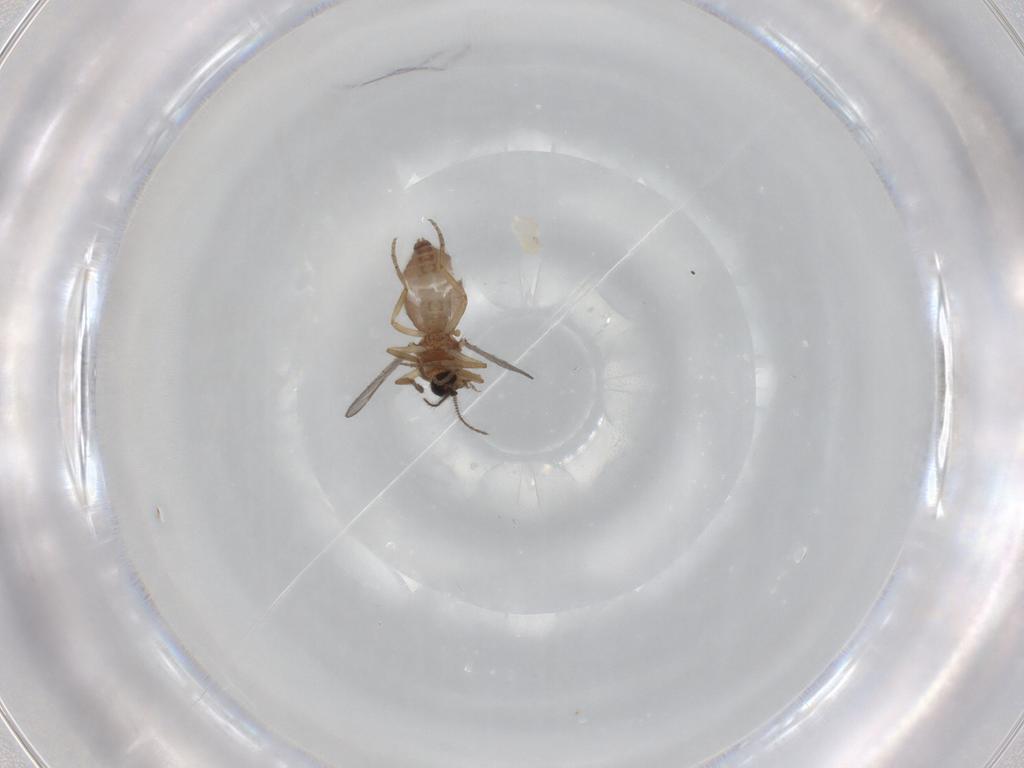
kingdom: Animalia
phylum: Arthropoda
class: Insecta
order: Diptera
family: Ceratopogonidae
